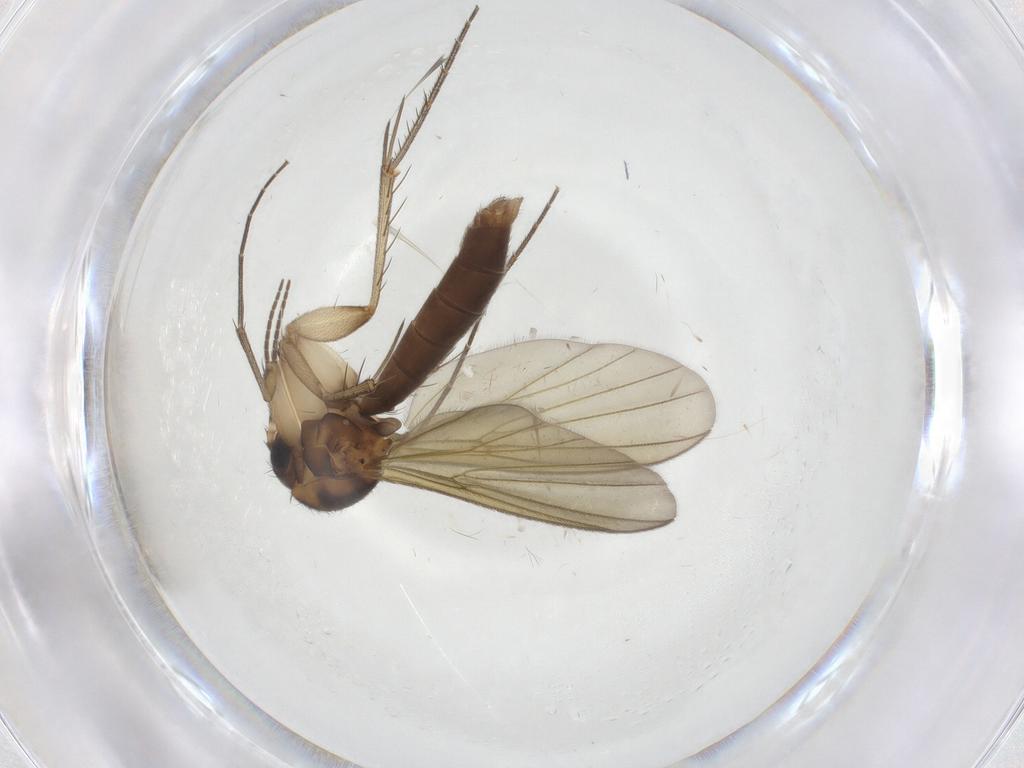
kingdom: Animalia
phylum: Arthropoda
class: Insecta
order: Diptera
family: Mycetophilidae
